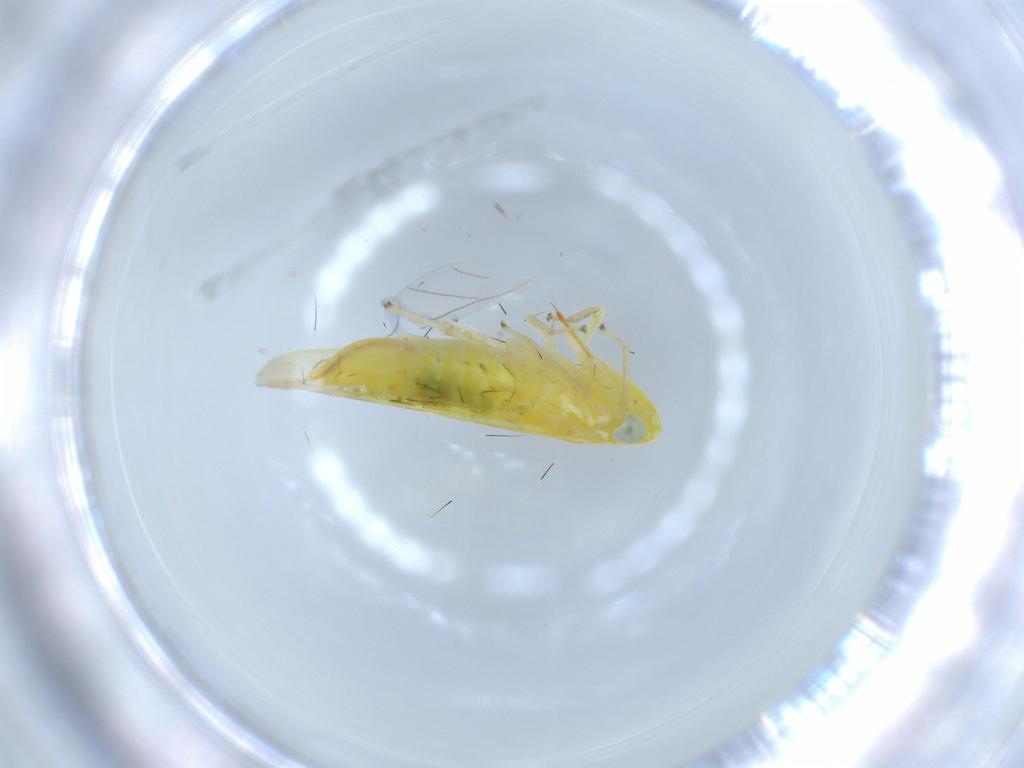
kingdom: Animalia
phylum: Arthropoda
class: Insecta
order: Hemiptera
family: Cicadellidae
